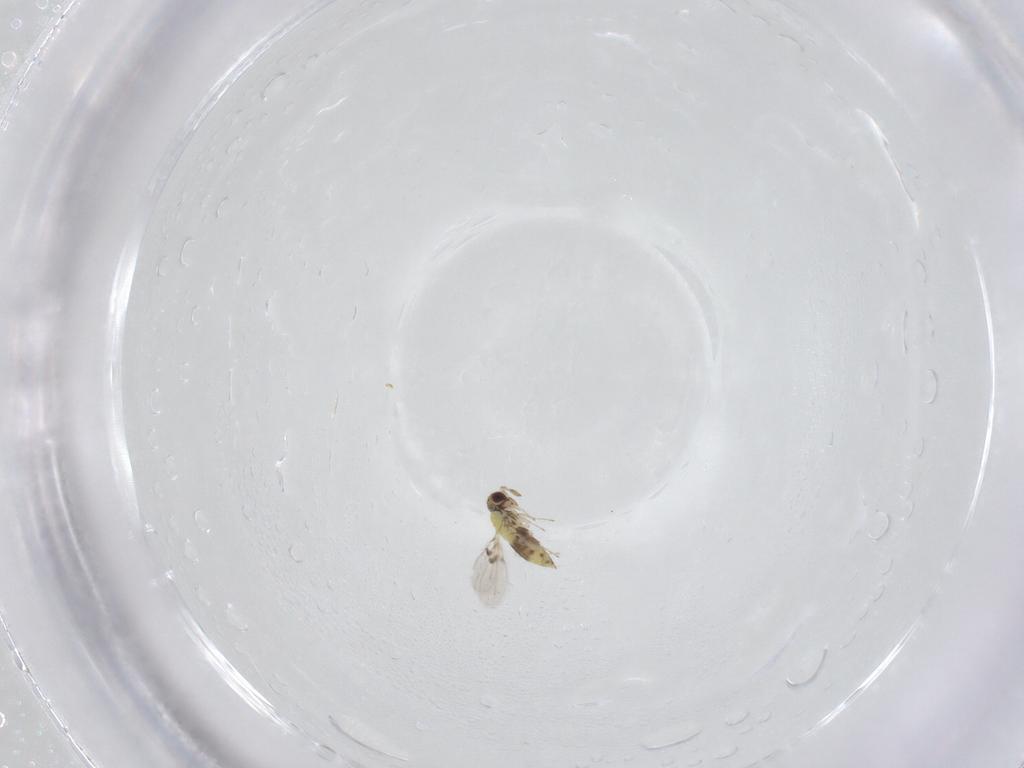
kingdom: Animalia
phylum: Arthropoda
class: Insecta
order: Hymenoptera
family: Trichogrammatidae
